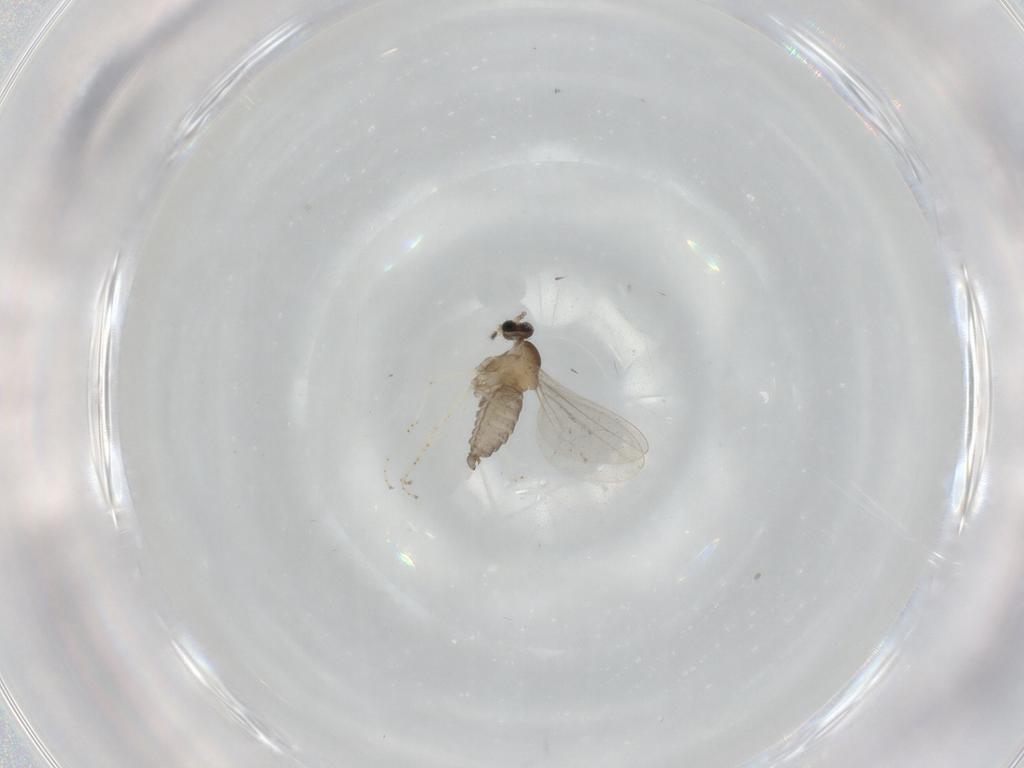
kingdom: Animalia
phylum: Arthropoda
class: Insecta
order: Diptera
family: Cecidomyiidae
